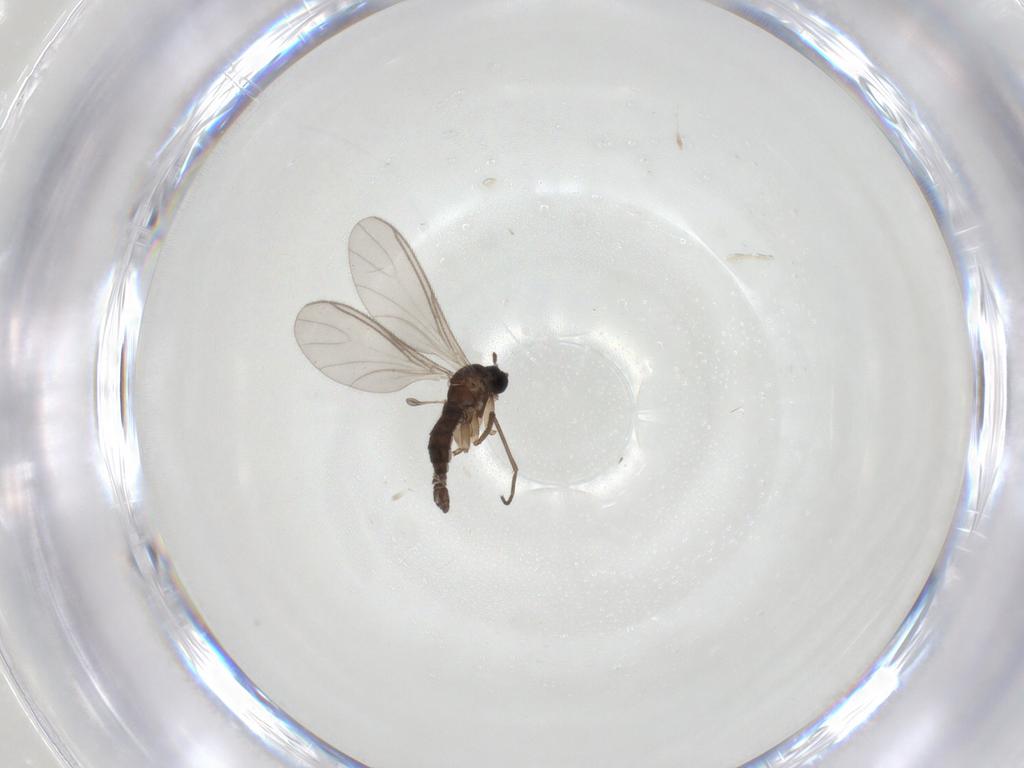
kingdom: Animalia
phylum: Arthropoda
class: Insecta
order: Diptera
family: Sciaridae
